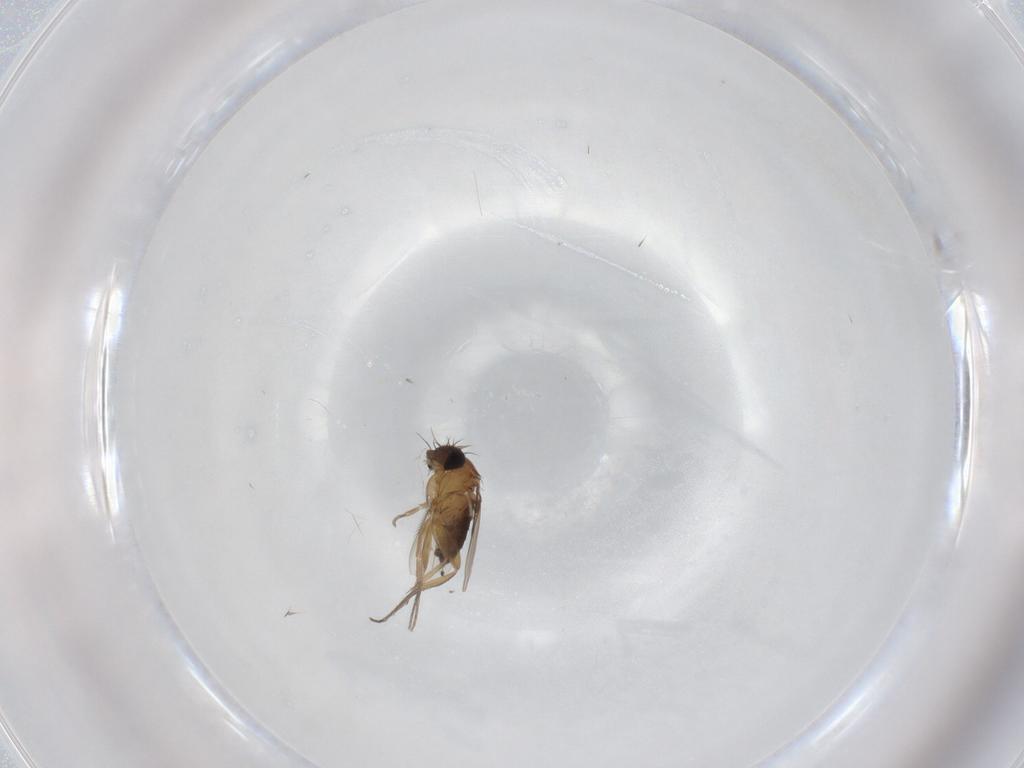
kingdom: Animalia
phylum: Arthropoda
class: Insecta
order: Diptera
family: Phoridae
